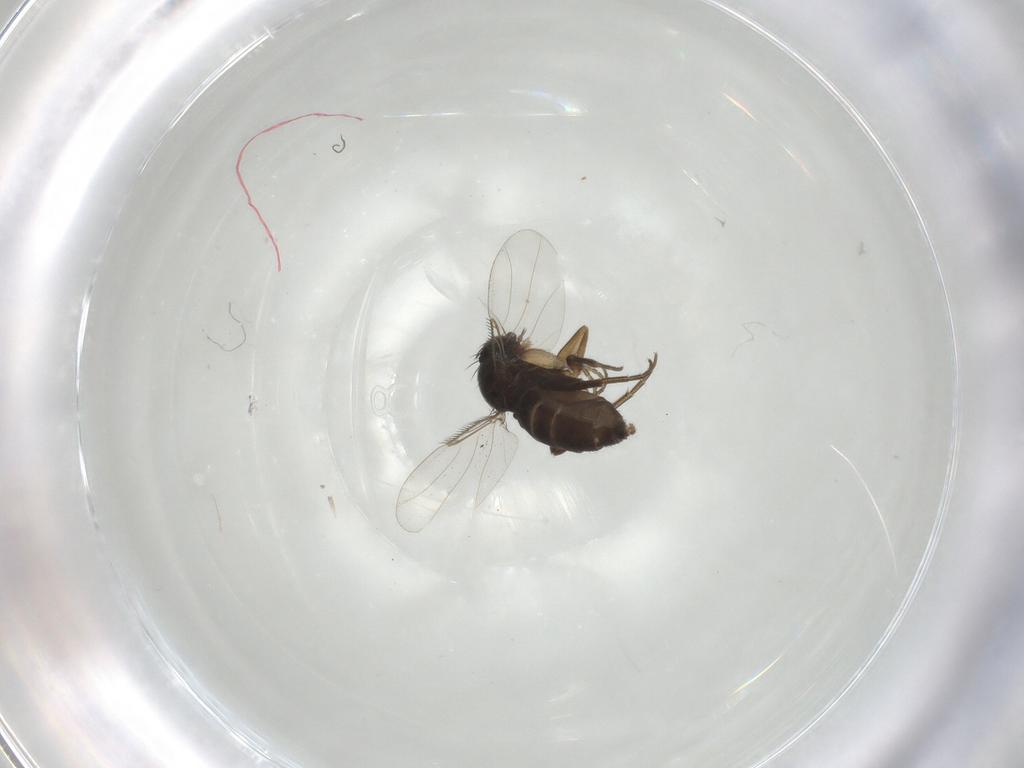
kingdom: Animalia
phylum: Arthropoda
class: Insecta
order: Diptera
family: Phoridae
